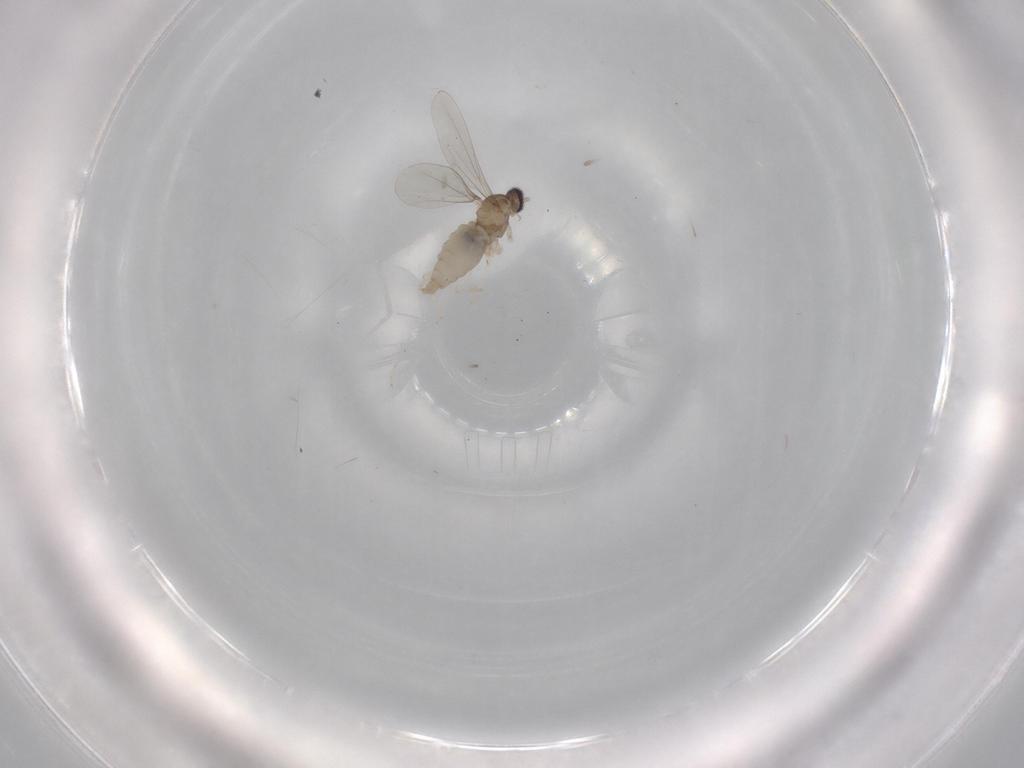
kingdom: Animalia
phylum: Arthropoda
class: Insecta
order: Diptera
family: Cecidomyiidae
